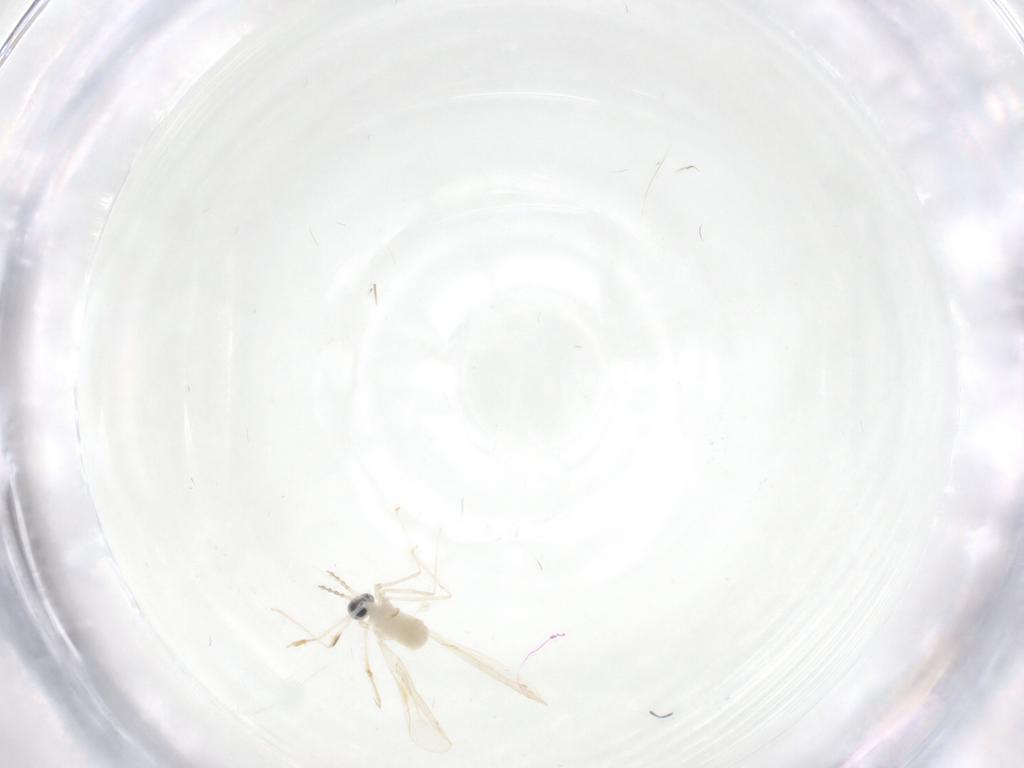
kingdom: Animalia
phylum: Arthropoda
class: Insecta
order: Diptera
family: Cecidomyiidae
